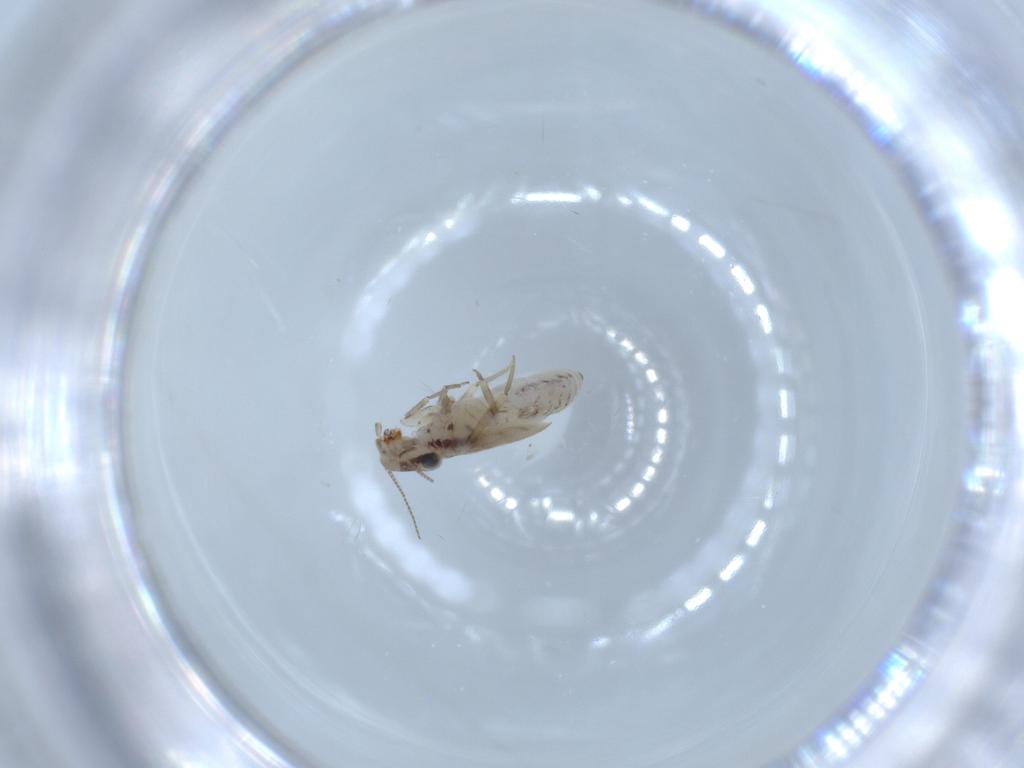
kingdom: Animalia
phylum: Arthropoda
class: Insecta
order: Psocodea
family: Lepidopsocidae
